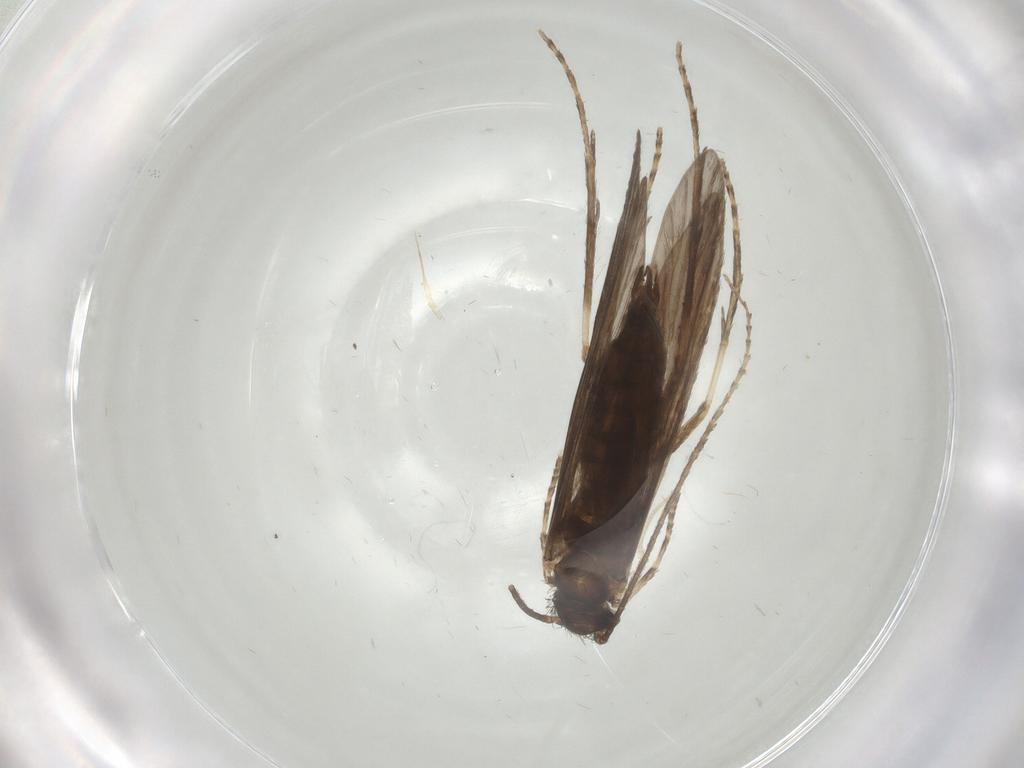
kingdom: Animalia
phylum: Arthropoda
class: Insecta
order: Trichoptera
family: Xiphocentronidae
